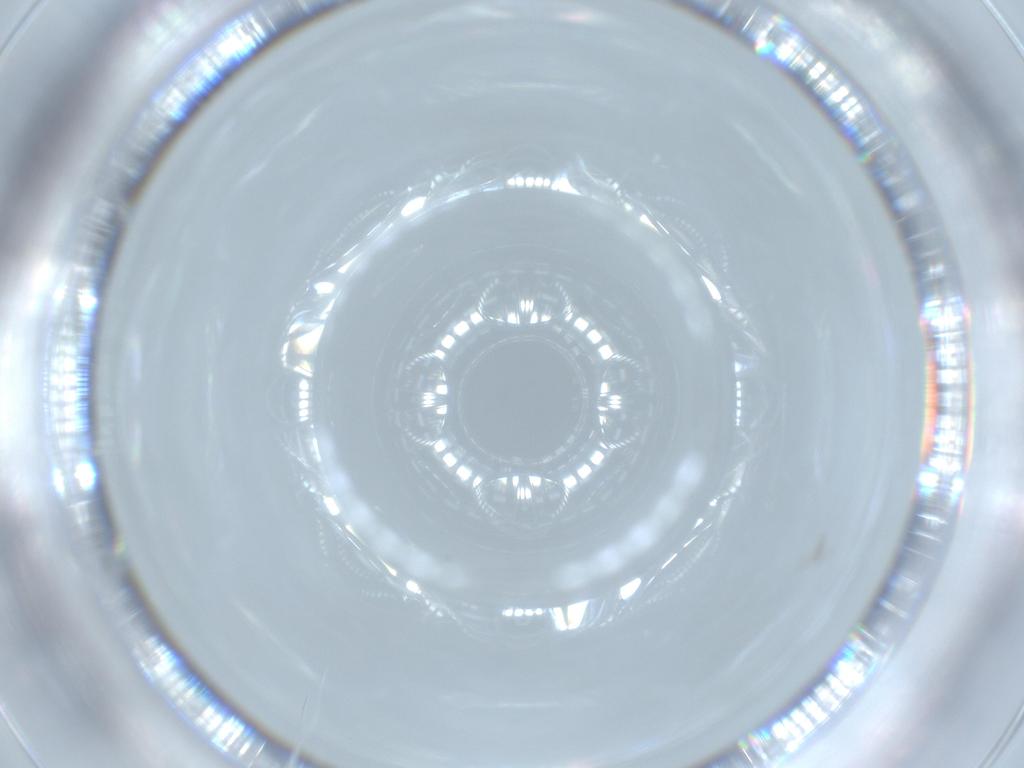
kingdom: Animalia
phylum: Arthropoda
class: Insecta
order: Diptera
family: Cecidomyiidae
